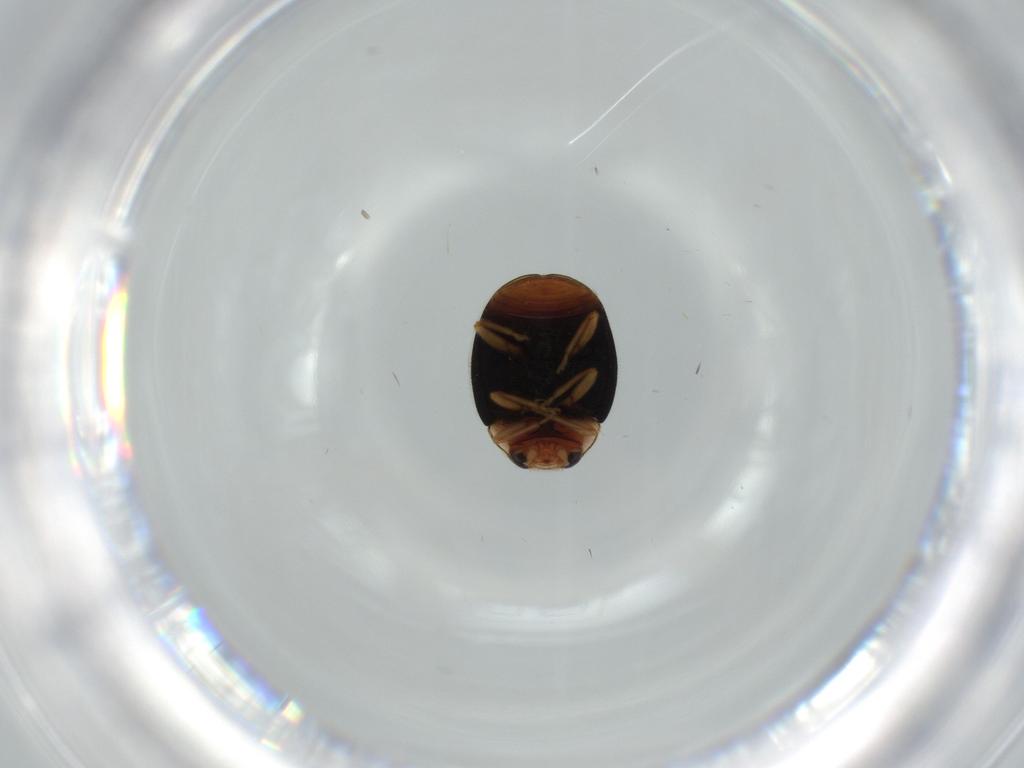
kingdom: Animalia
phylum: Arthropoda
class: Insecta
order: Coleoptera
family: Coccinellidae
